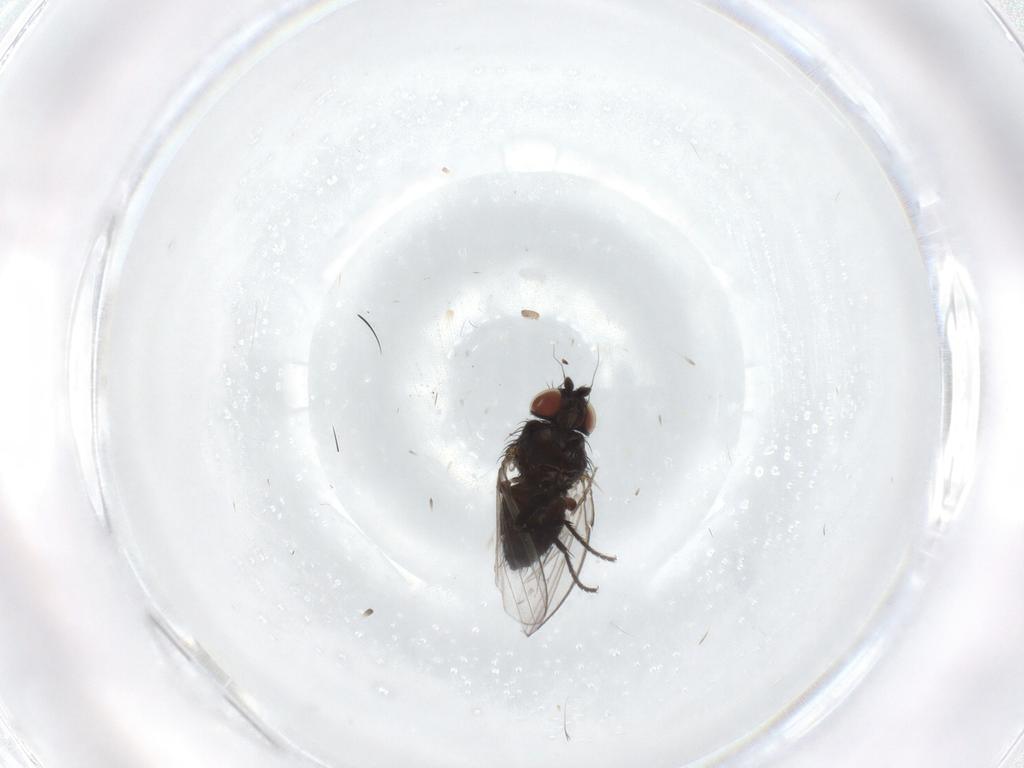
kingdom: Animalia
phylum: Arthropoda
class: Insecta
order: Diptera
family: Milichiidae
